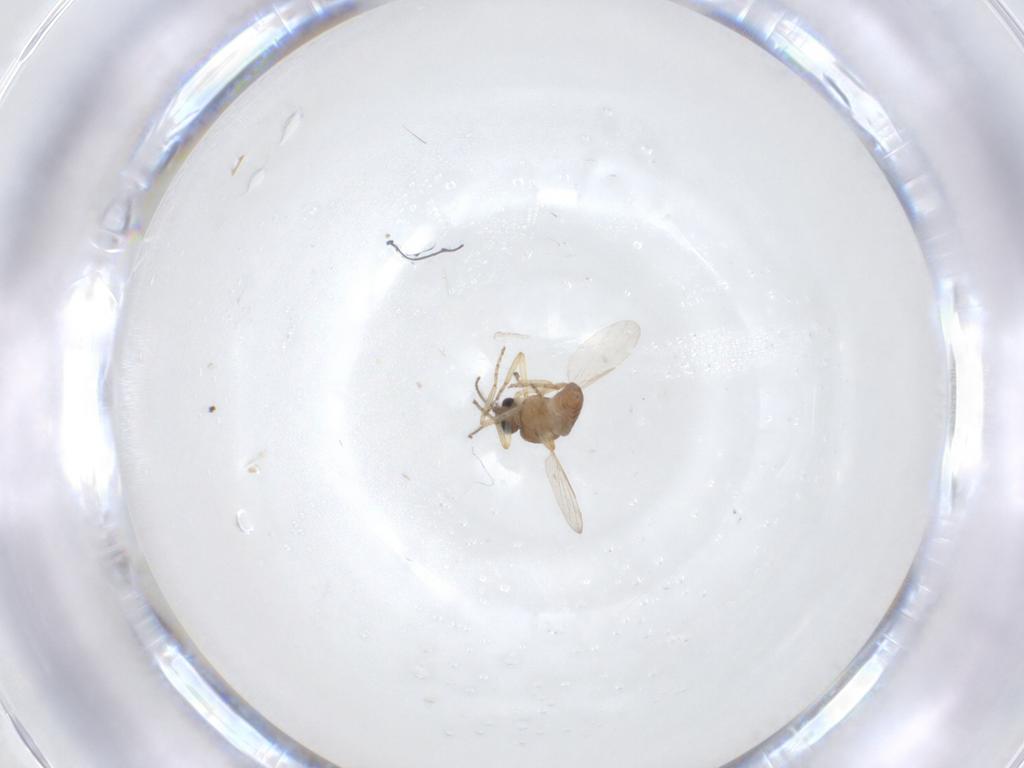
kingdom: Animalia
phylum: Arthropoda
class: Insecta
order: Diptera
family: Ceratopogonidae
